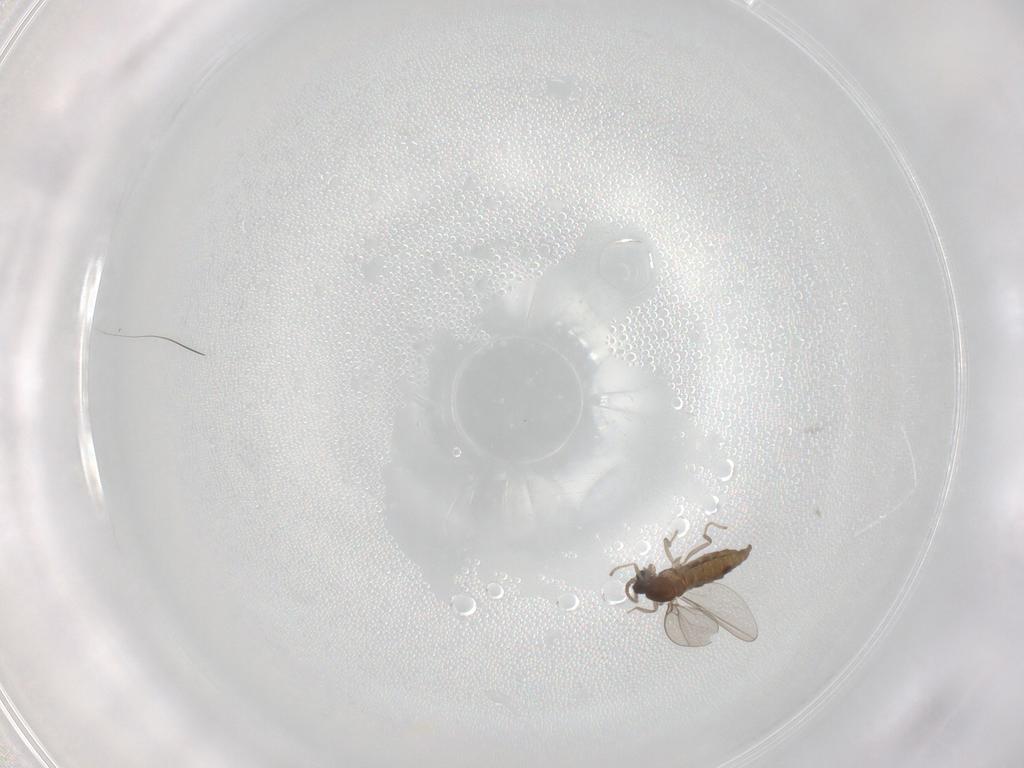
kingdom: Animalia
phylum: Arthropoda
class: Insecta
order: Diptera
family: Cecidomyiidae
